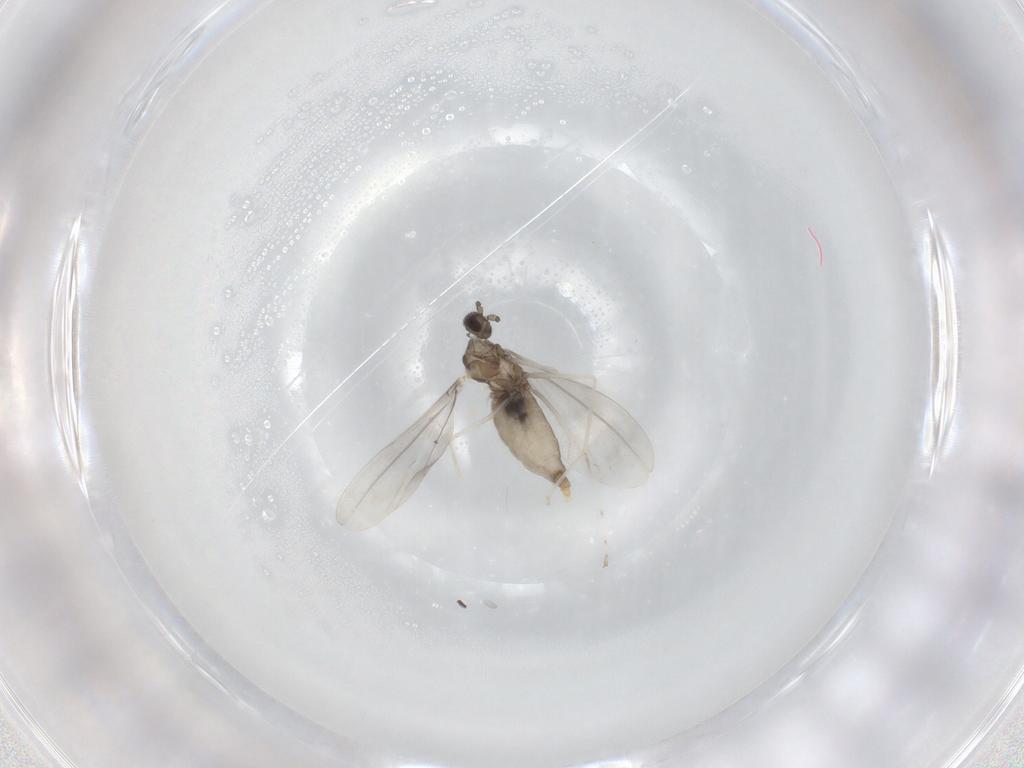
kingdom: Animalia
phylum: Arthropoda
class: Insecta
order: Diptera
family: Cecidomyiidae
